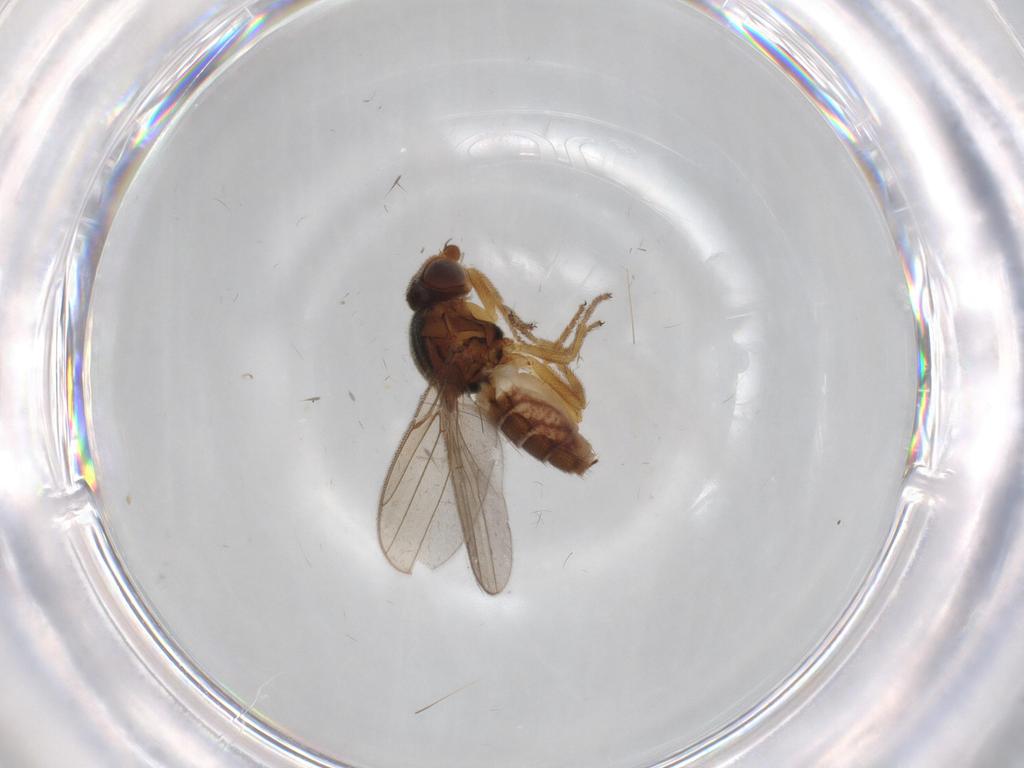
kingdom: Animalia
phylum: Arthropoda
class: Insecta
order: Diptera
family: Chloropidae
